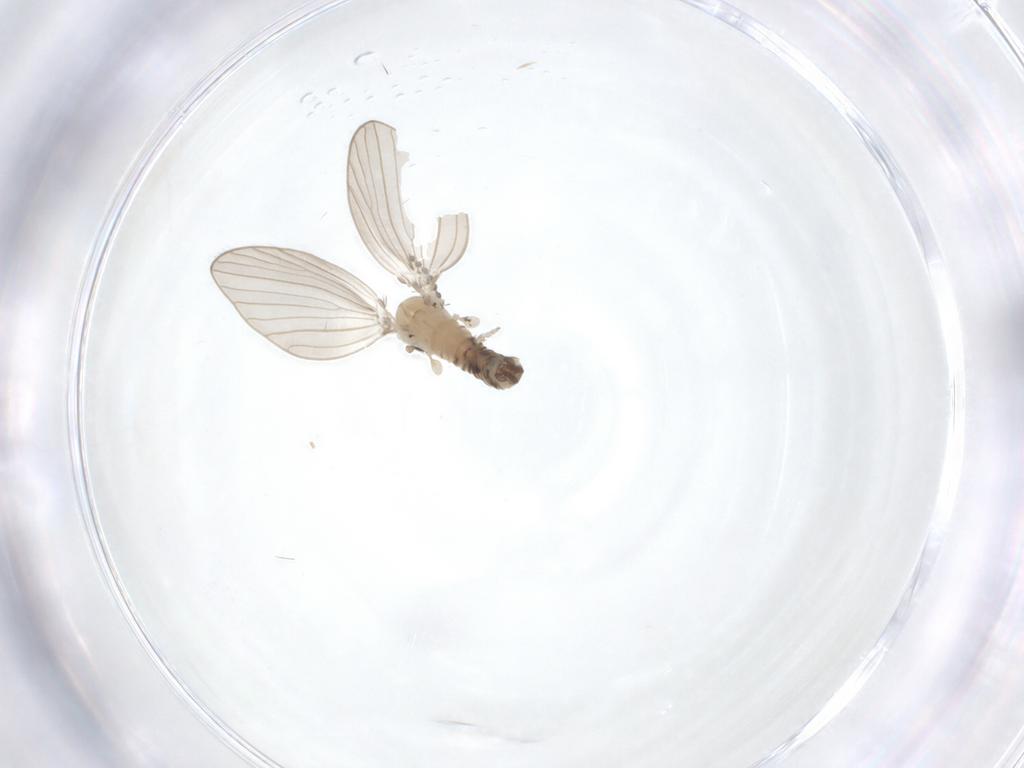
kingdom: Animalia
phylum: Arthropoda
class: Insecta
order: Diptera
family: Psychodidae
